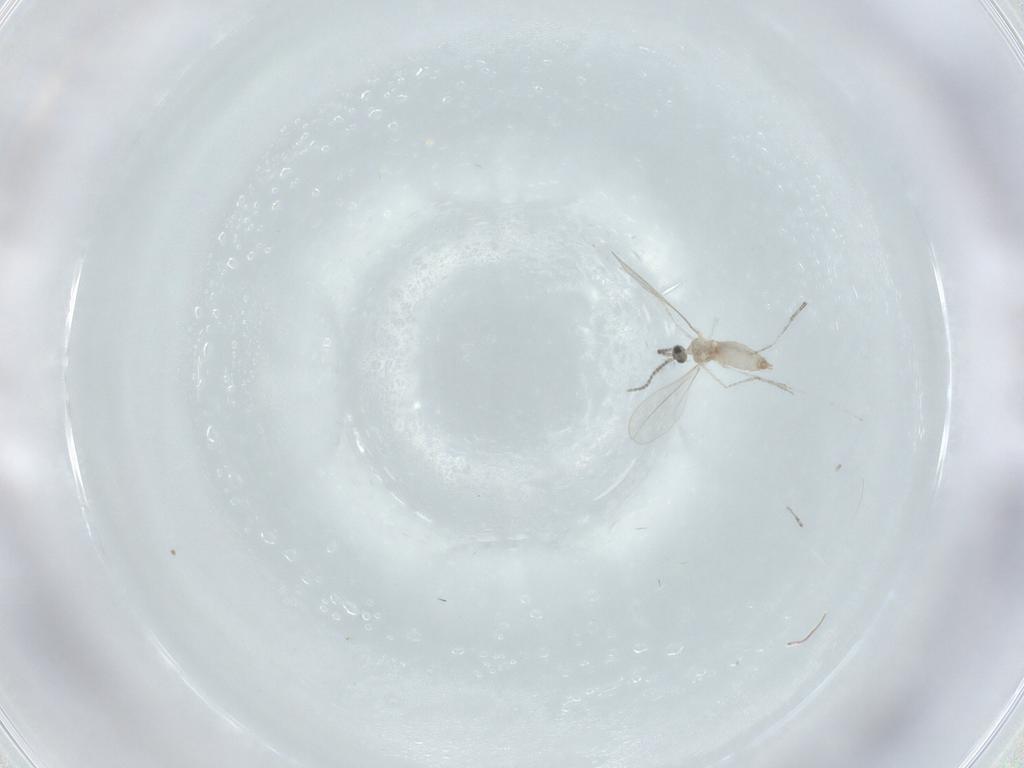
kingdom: Animalia
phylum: Arthropoda
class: Insecta
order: Diptera
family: Cecidomyiidae
